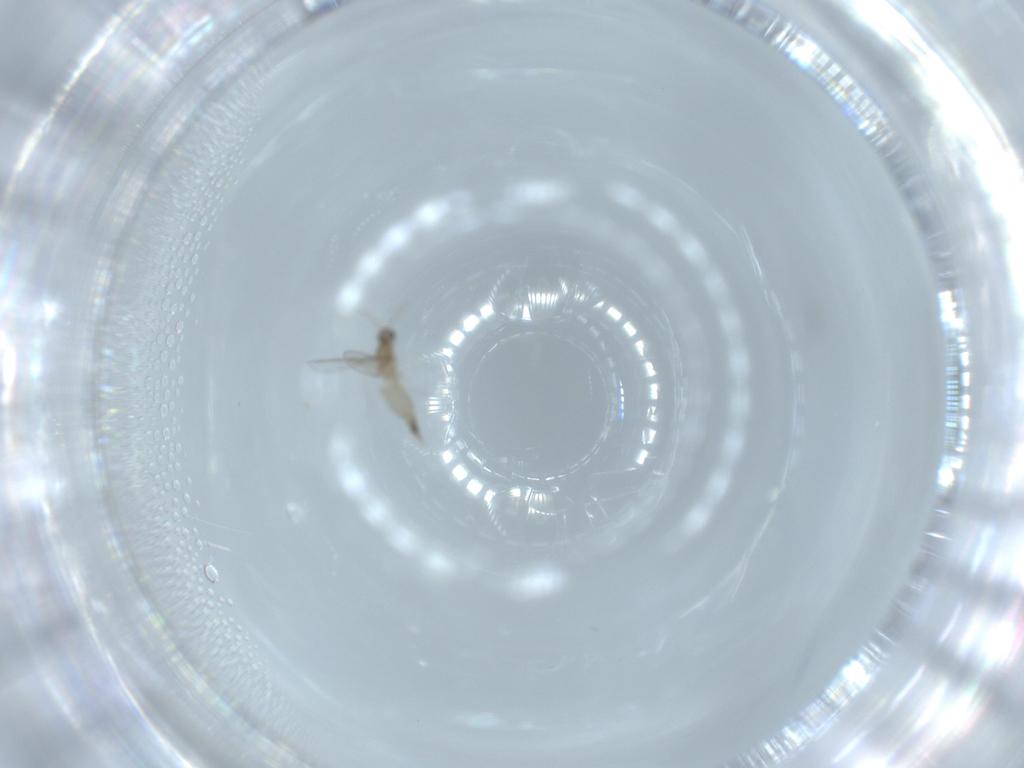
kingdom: Animalia
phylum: Arthropoda
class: Insecta
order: Diptera
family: Cecidomyiidae
